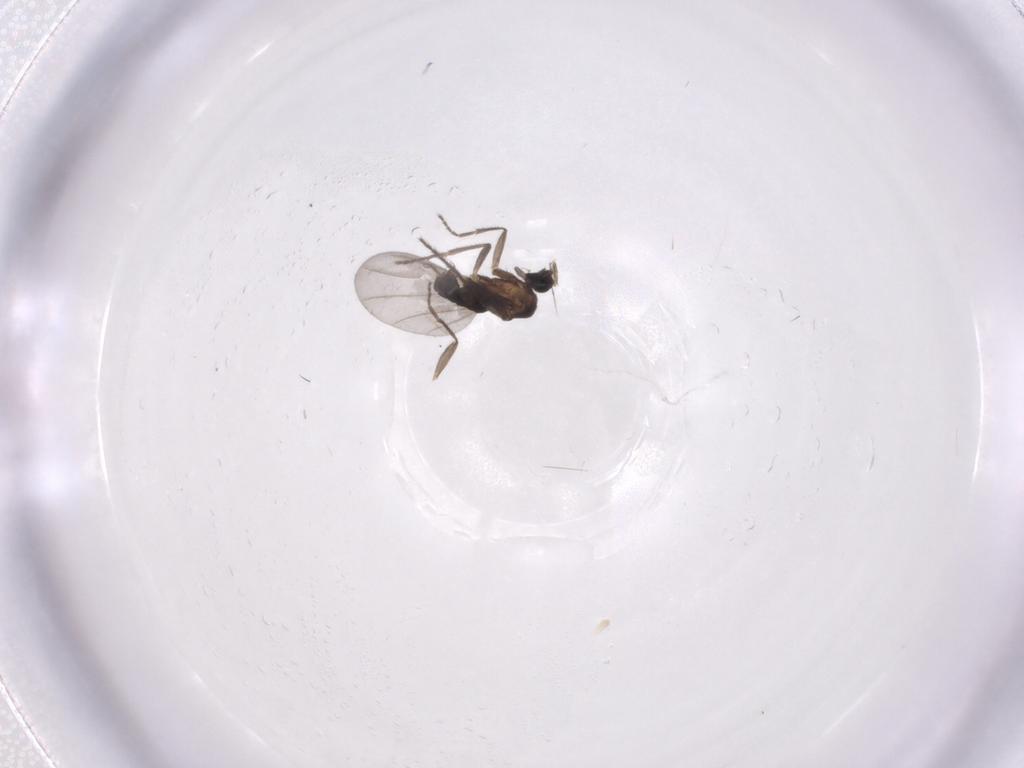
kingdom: Animalia
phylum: Arthropoda
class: Insecta
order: Diptera
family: Phoridae
